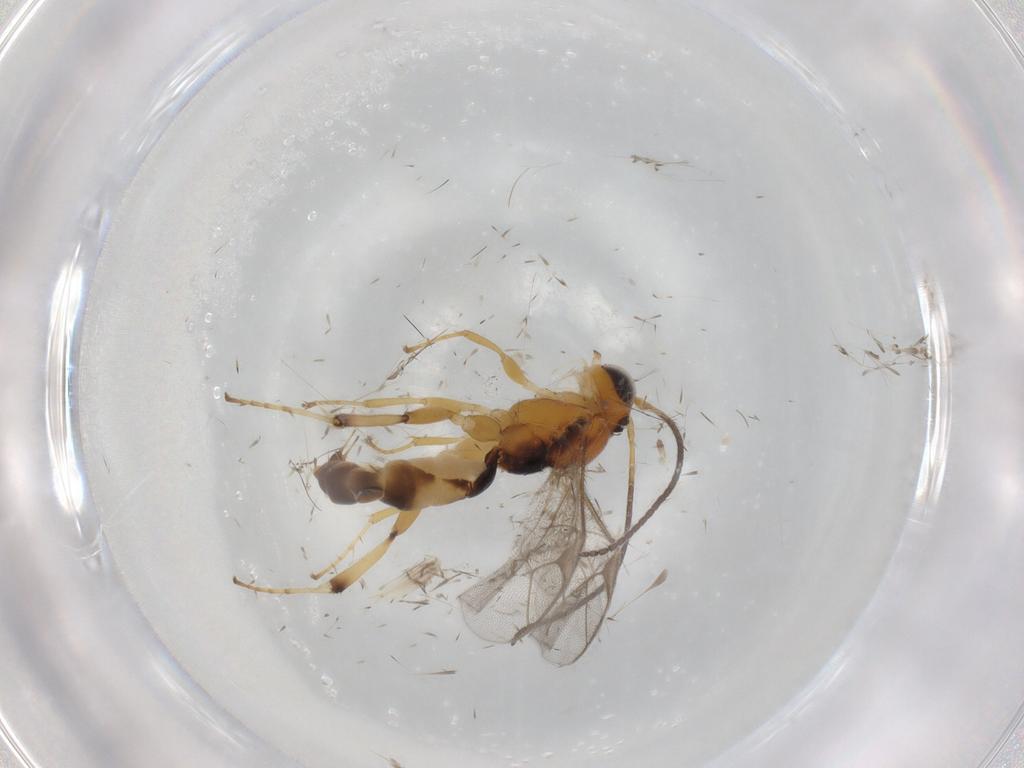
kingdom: Animalia
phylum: Arthropoda
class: Insecta
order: Hymenoptera
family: Ichneumonidae
